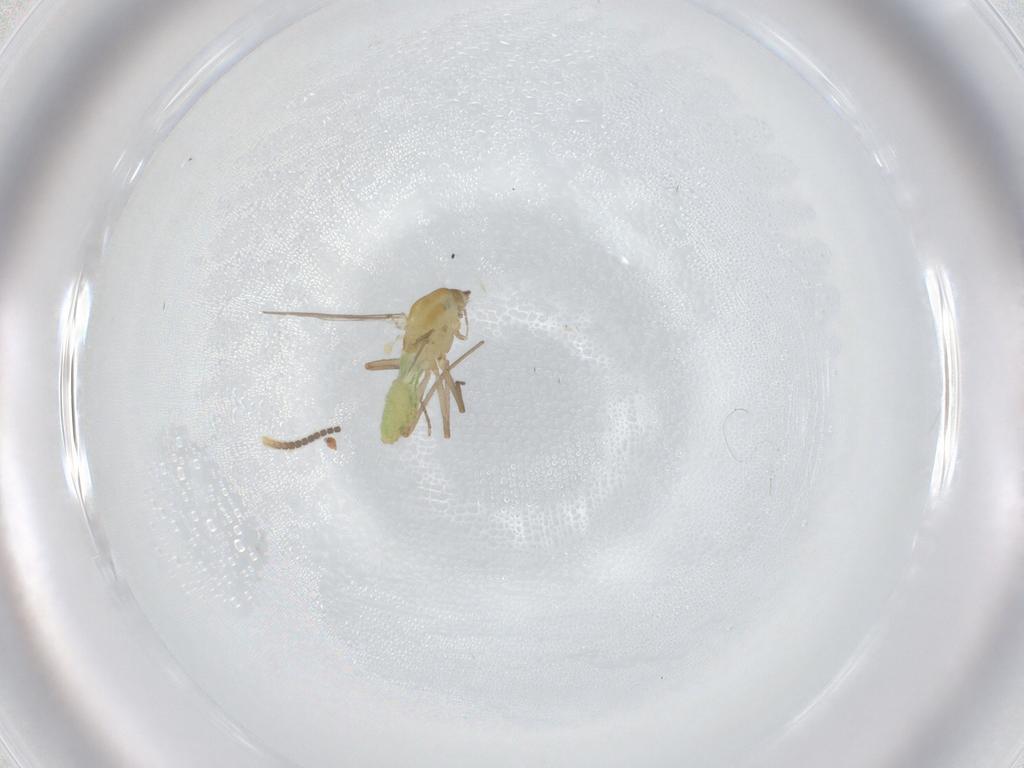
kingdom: Animalia
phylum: Arthropoda
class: Insecta
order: Diptera
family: Chironomidae
